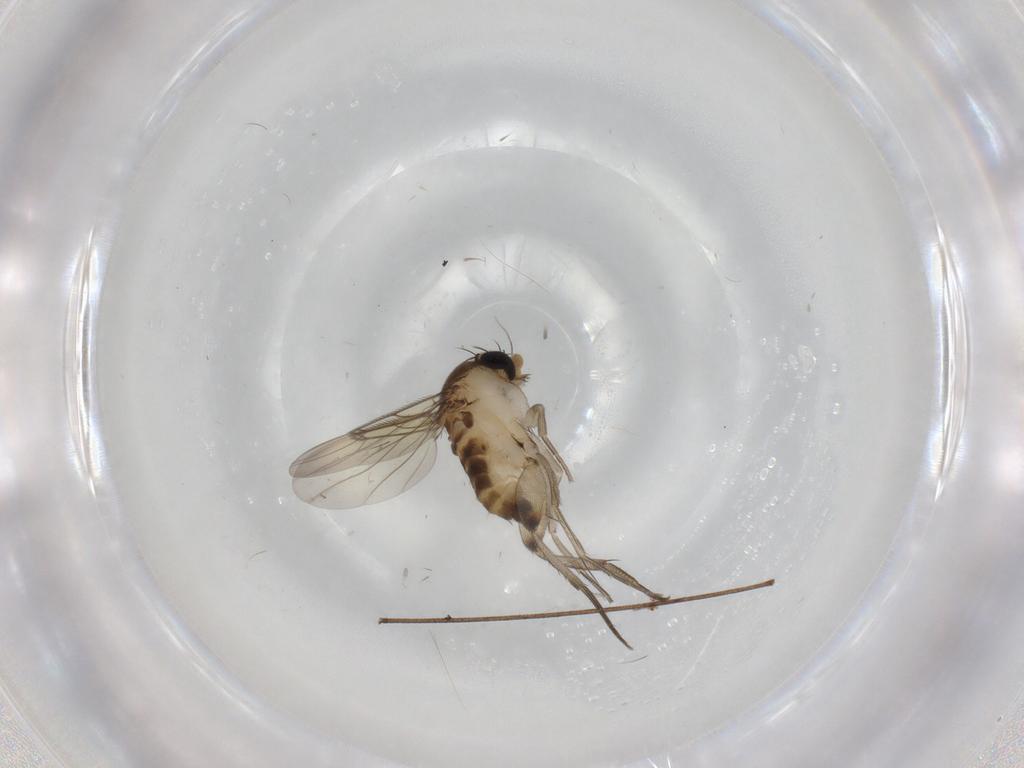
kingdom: Animalia
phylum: Arthropoda
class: Insecta
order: Diptera
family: Phoridae
